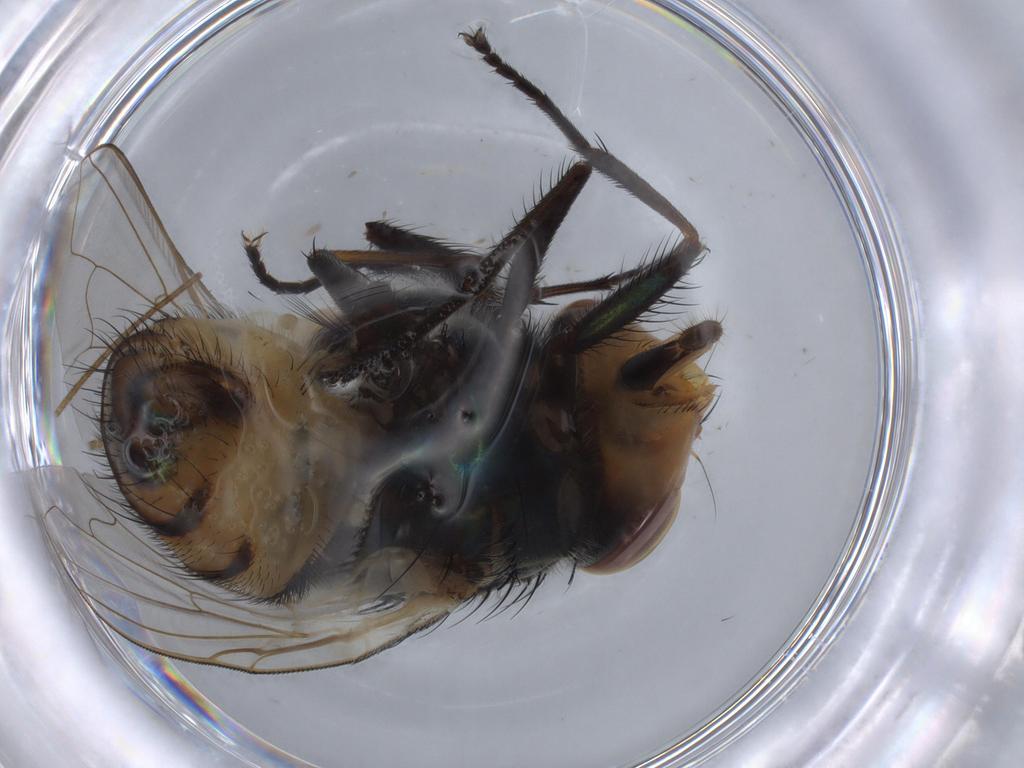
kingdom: Animalia
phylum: Arthropoda
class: Insecta
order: Diptera
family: Tachinidae
